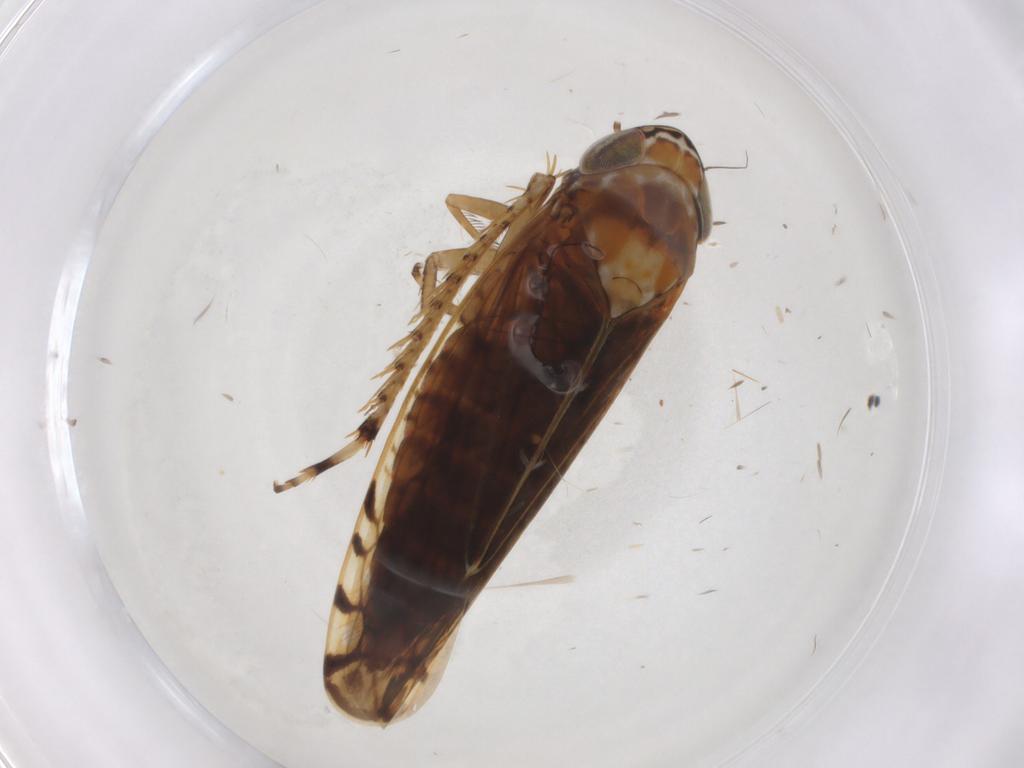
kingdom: Animalia
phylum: Arthropoda
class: Insecta
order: Hemiptera
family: Cicadellidae
